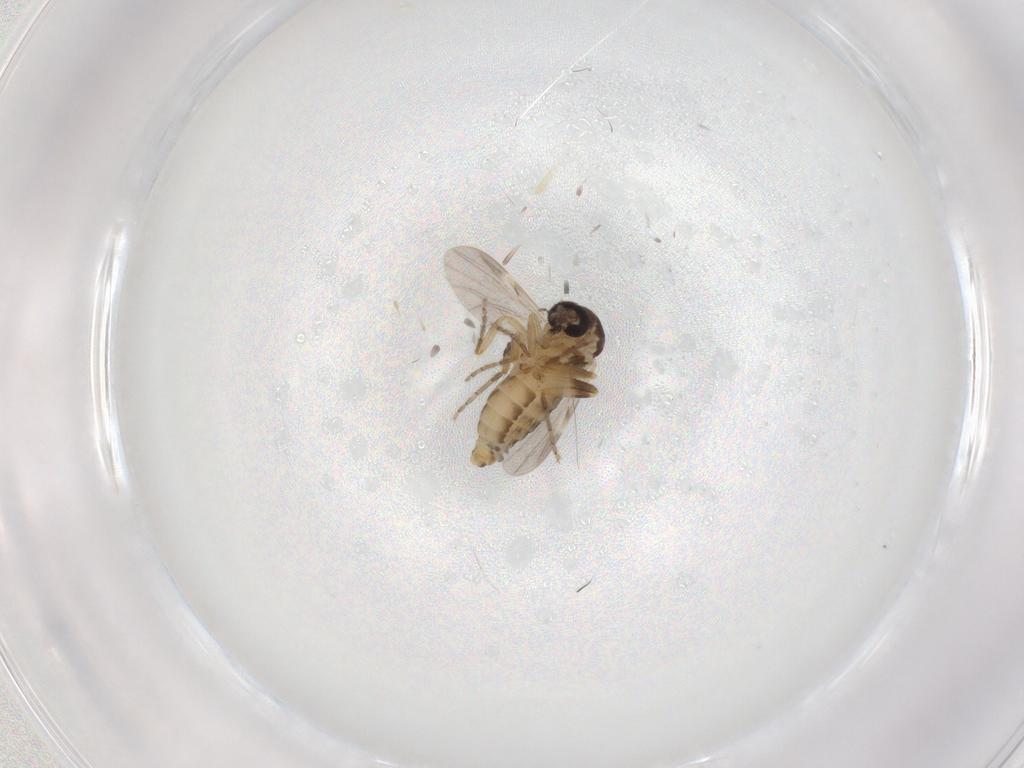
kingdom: Animalia
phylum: Arthropoda
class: Insecta
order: Diptera
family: Ceratopogonidae
